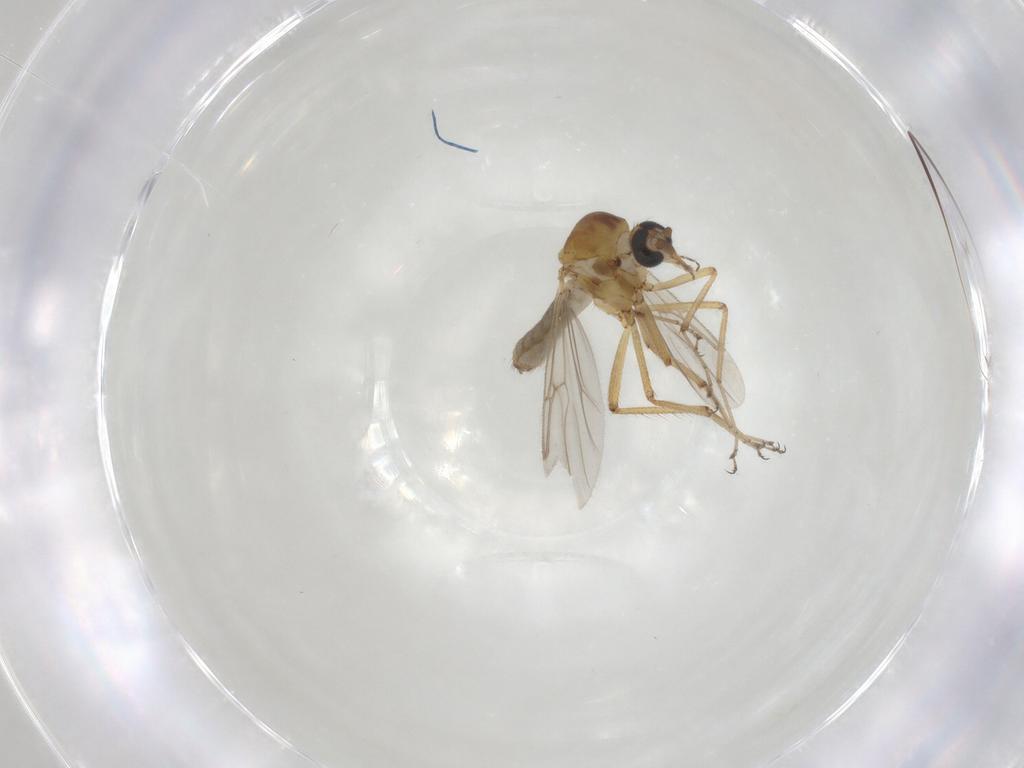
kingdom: Animalia
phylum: Arthropoda
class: Insecta
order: Diptera
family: Ceratopogonidae
